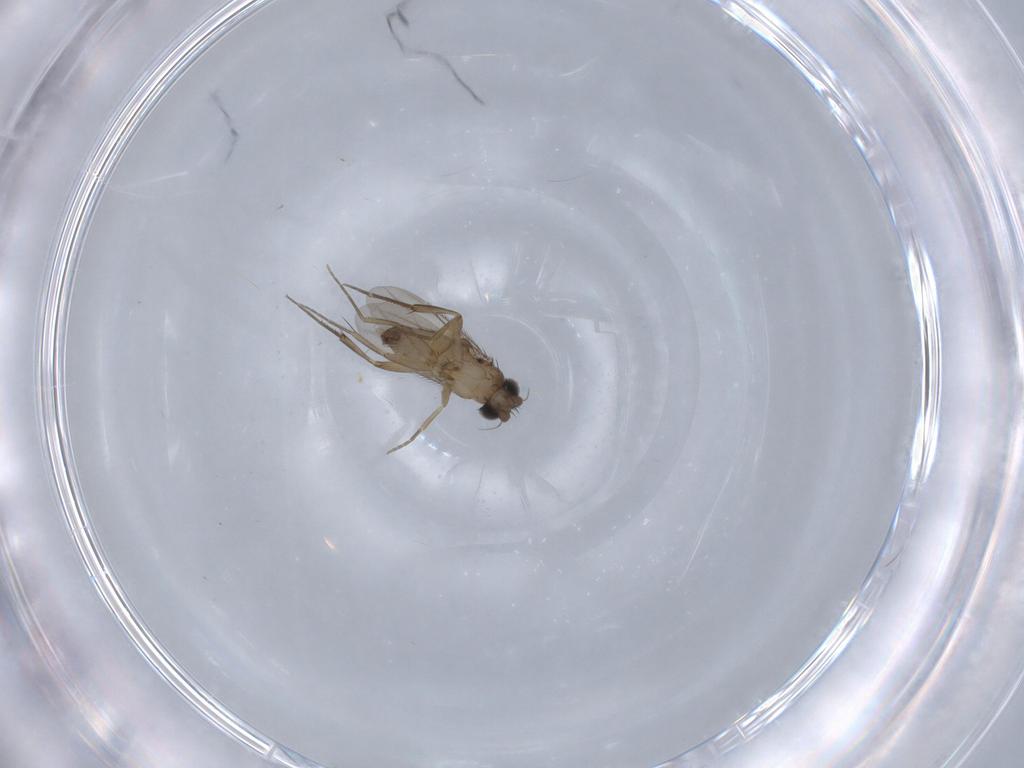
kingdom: Animalia
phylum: Arthropoda
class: Insecta
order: Diptera
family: Phoridae
